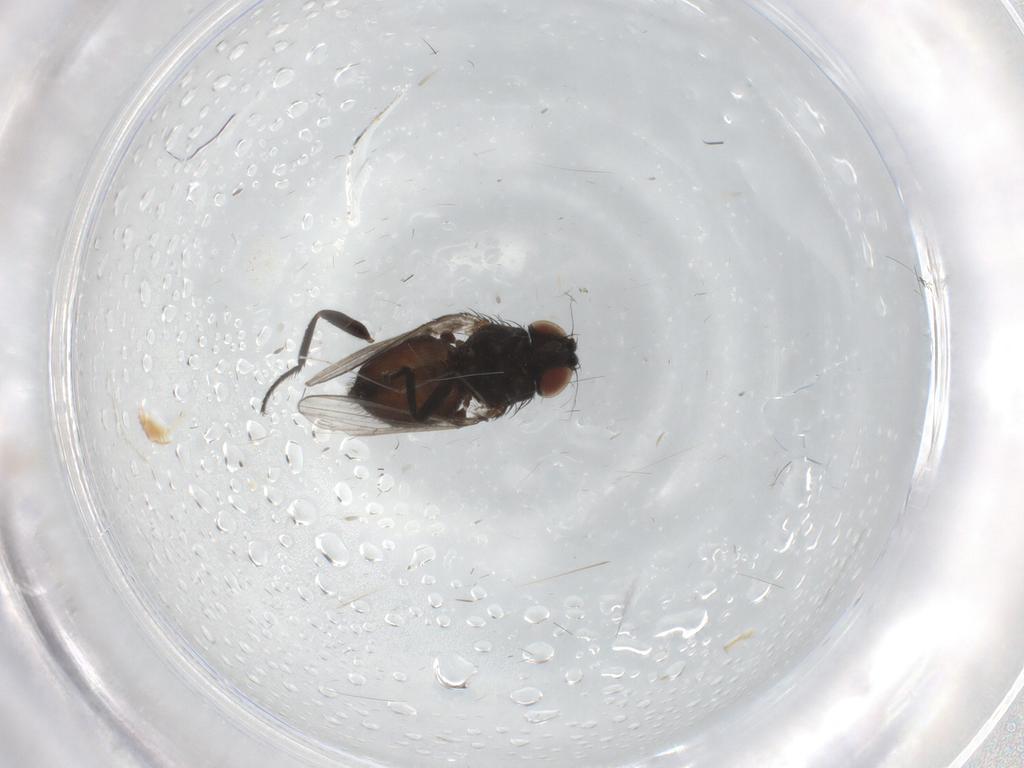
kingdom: Animalia
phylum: Arthropoda
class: Insecta
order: Diptera
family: Milichiidae
